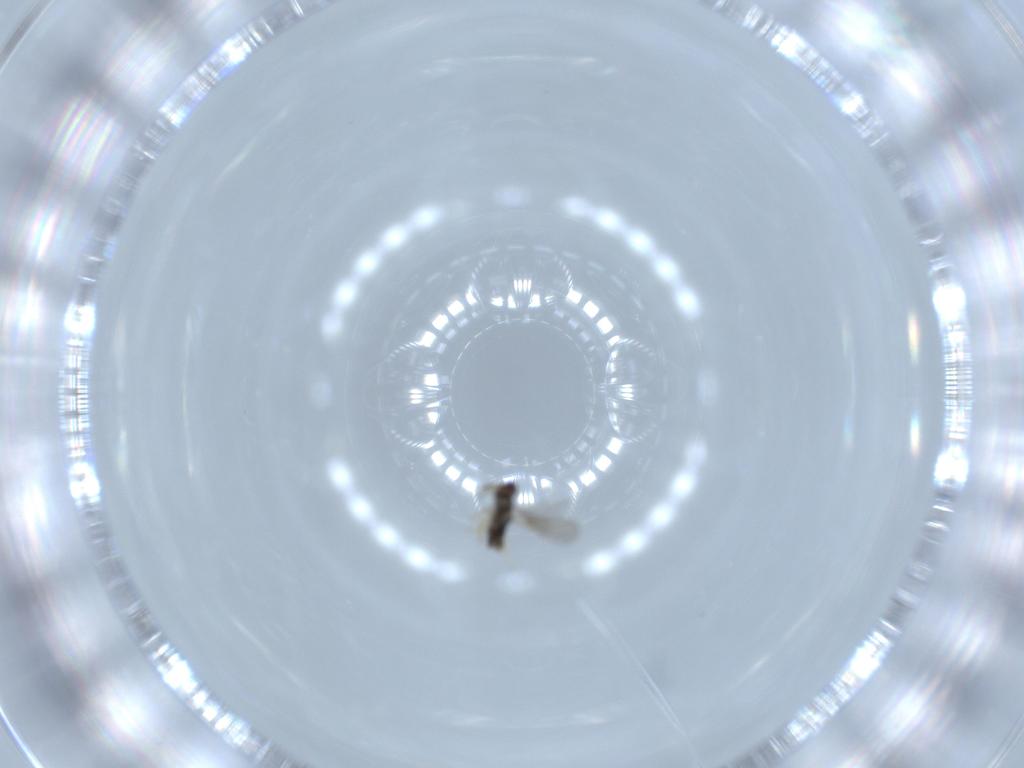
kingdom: Animalia
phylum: Arthropoda
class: Insecta
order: Hymenoptera
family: Aphelinidae
